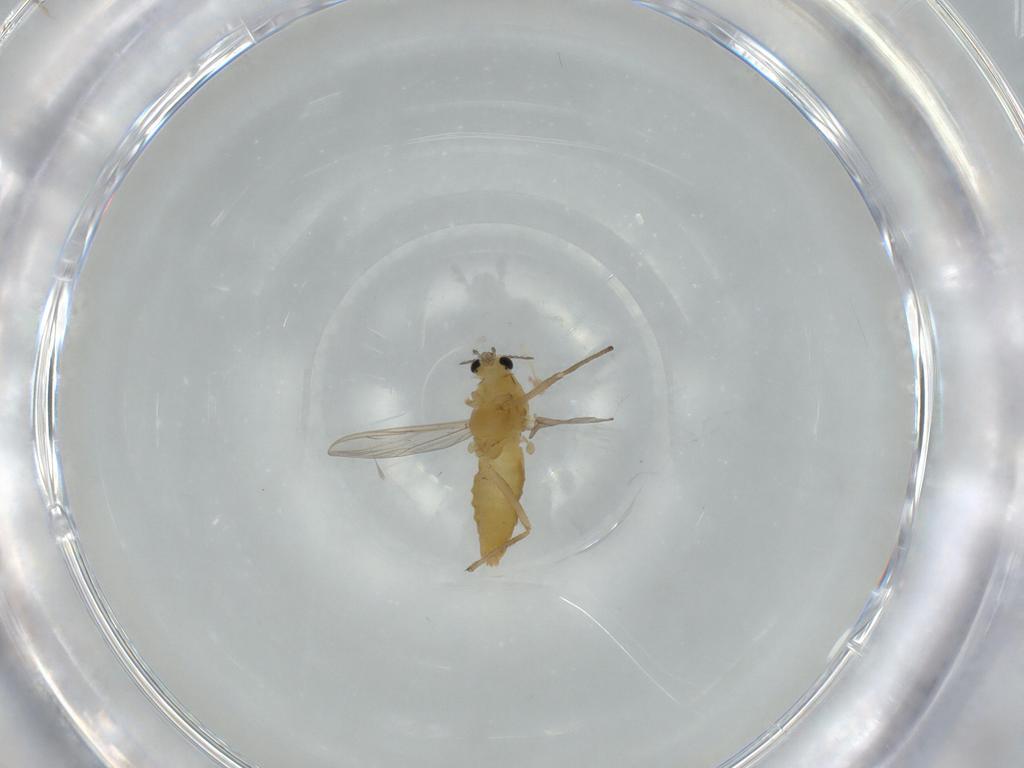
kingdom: Animalia
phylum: Arthropoda
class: Insecta
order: Diptera
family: Chironomidae
